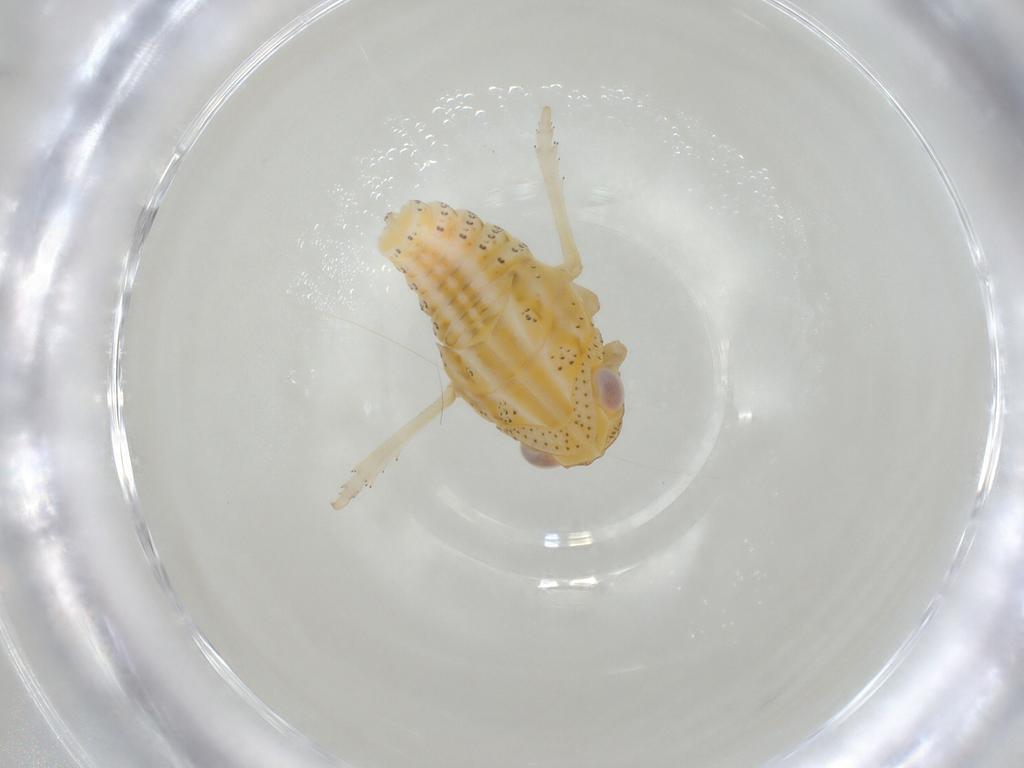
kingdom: Animalia
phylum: Arthropoda
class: Insecta
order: Hemiptera
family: Tropiduchidae
